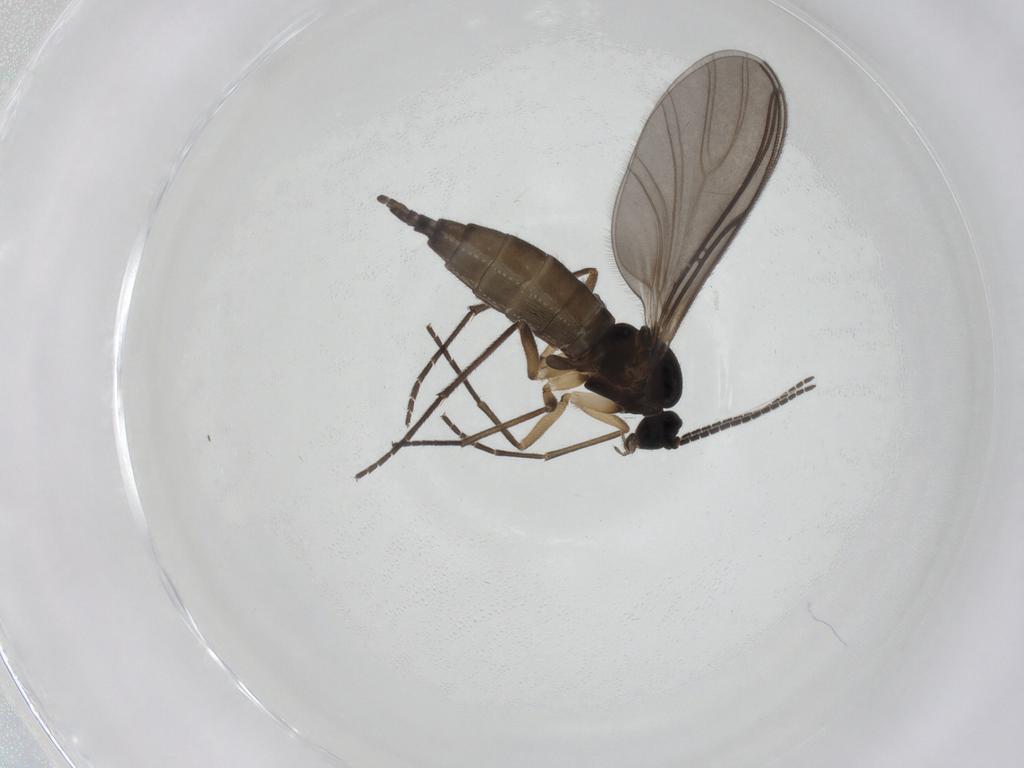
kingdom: Animalia
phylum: Arthropoda
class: Insecta
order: Diptera
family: Sciaridae
